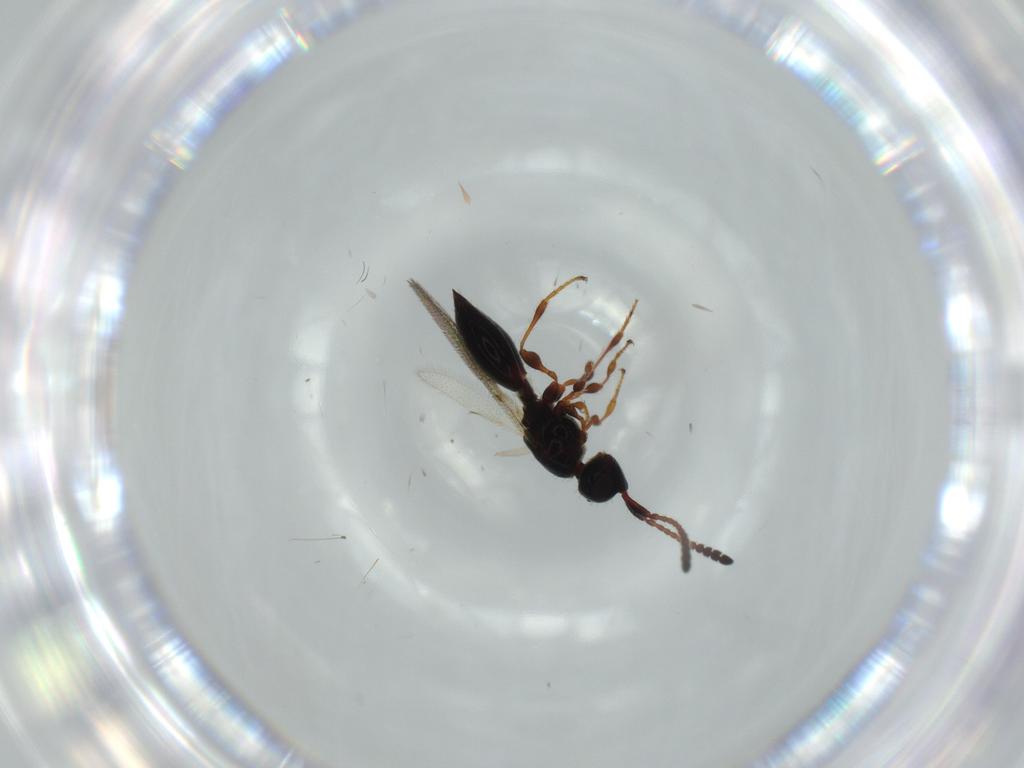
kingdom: Animalia
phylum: Arthropoda
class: Insecta
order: Hymenoptera
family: Diapriidae
